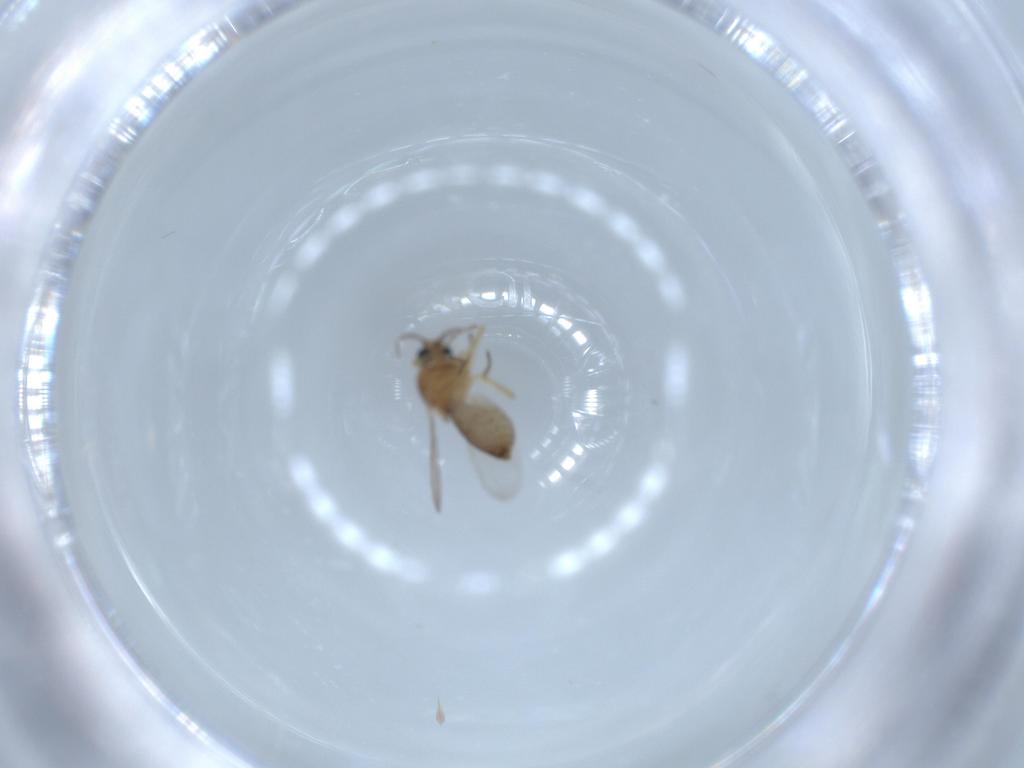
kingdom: Animalia
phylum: Arthropoda
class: Insecta
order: Diptera
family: Ceratopogonidae
